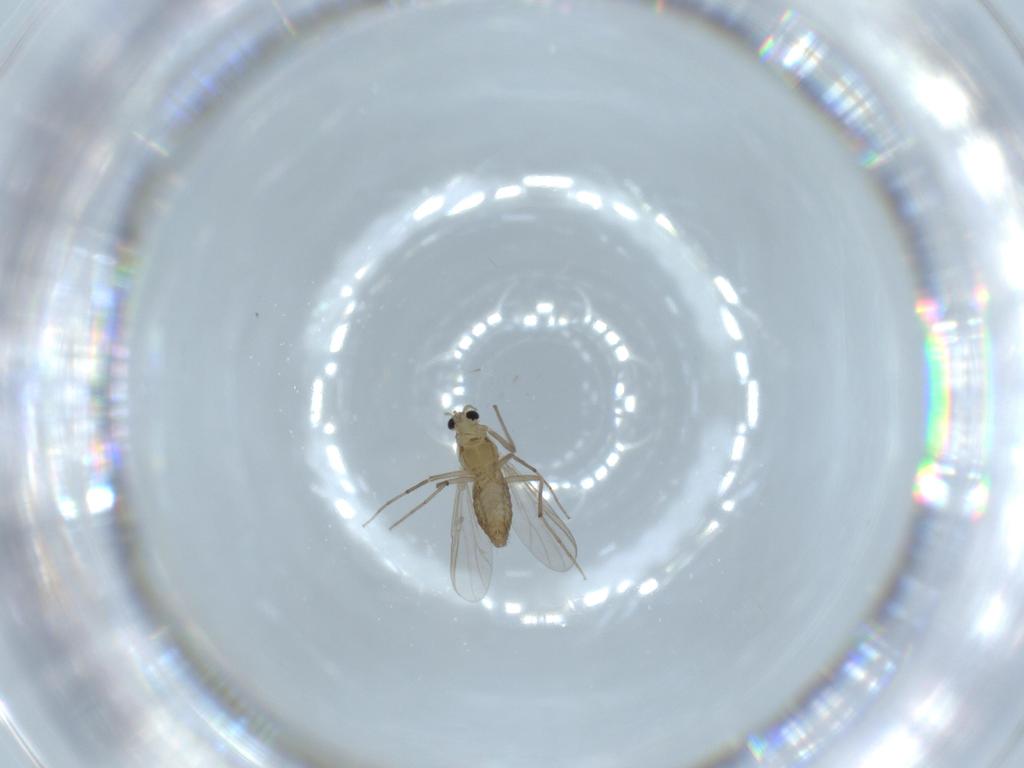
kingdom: Animalia
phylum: Arthropoda
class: Insecta
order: Diptera
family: Chironomidae
